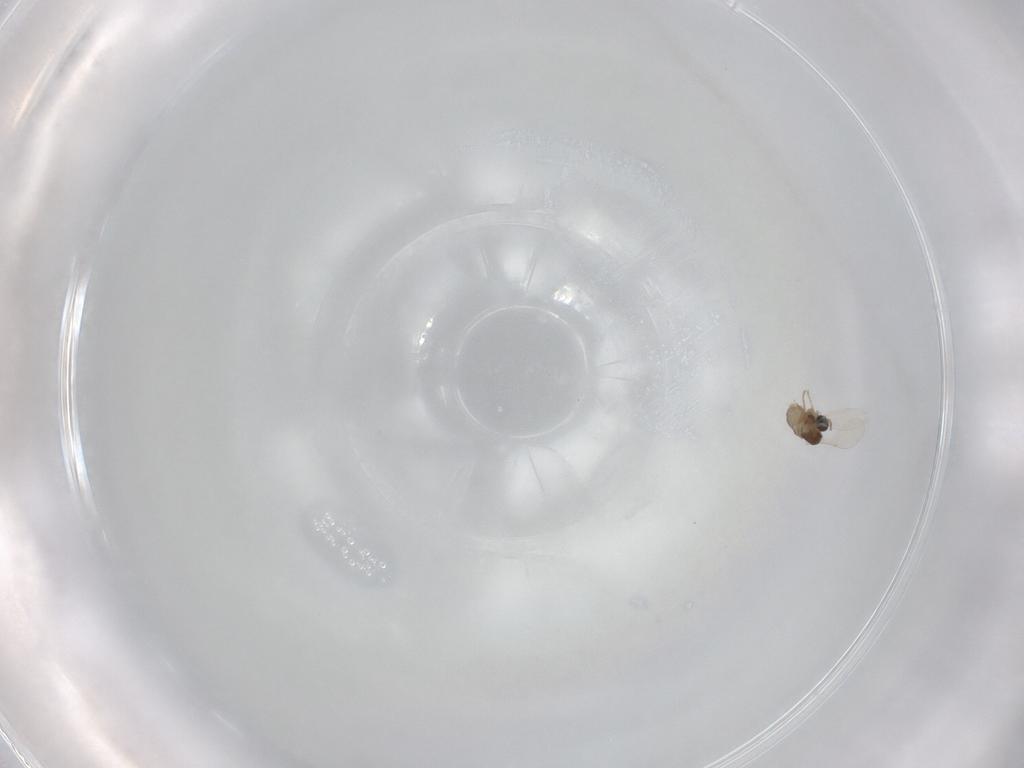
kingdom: Animalia
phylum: Arthropoda
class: Insecta
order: Diptera
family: Cecidomyiidae
